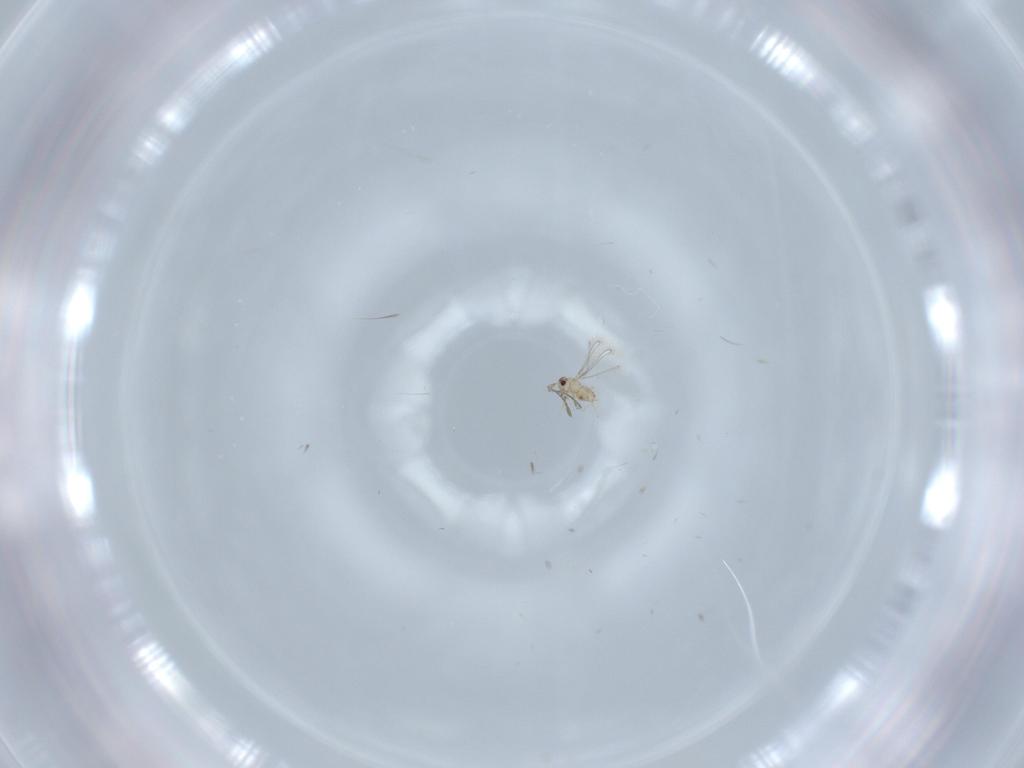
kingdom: Animalia
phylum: Arthropoda
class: Insecta
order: Hymenoptera
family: Mymaridae
